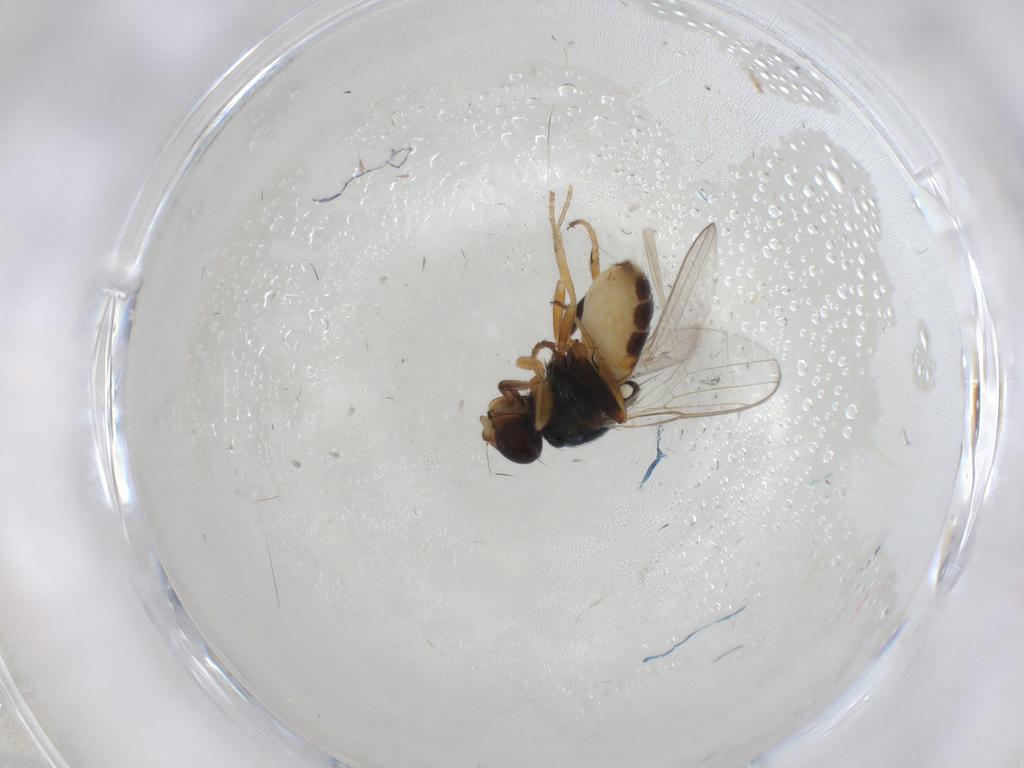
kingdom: Animalia
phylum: Arthropoda
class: Insecta
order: Diptera
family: Chloropidae
